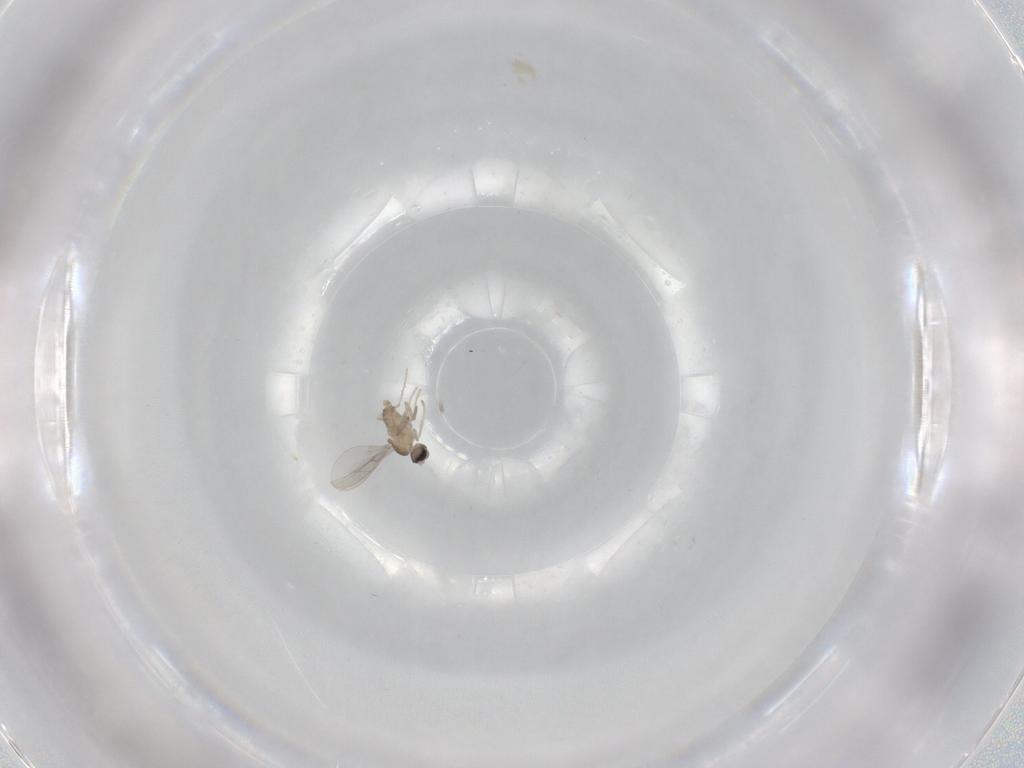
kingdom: Animalia
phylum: Arthropoda
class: Insecta
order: Diptera
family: Cecidomyiidae
